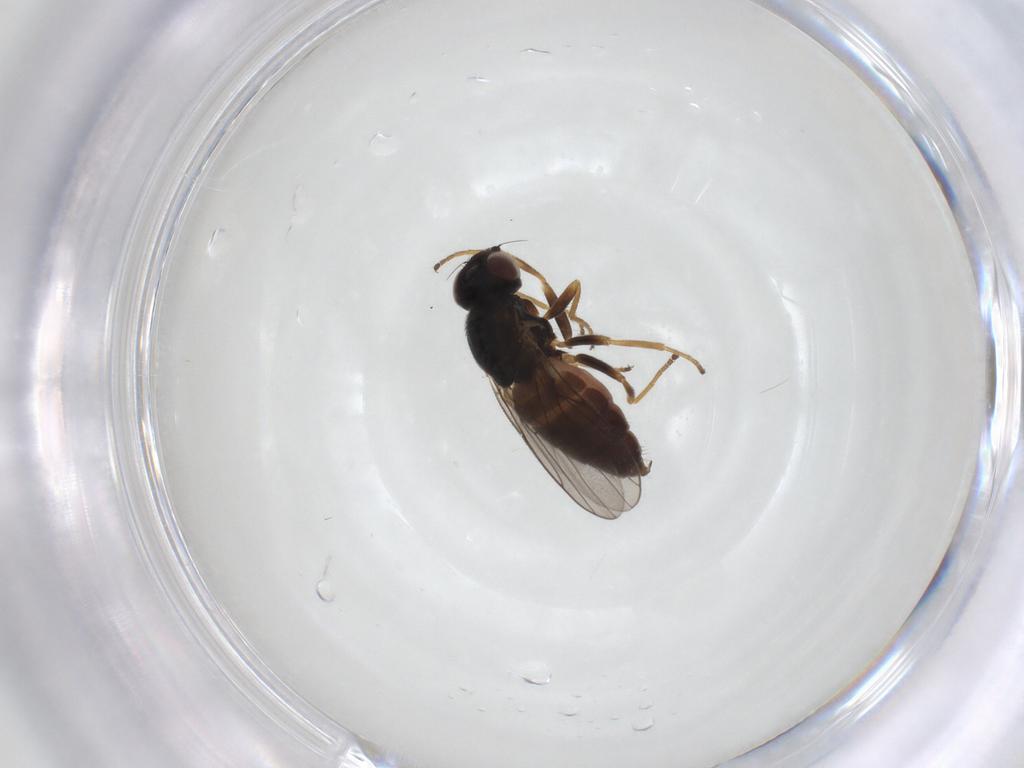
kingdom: Animalia
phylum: Arthropoda
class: Insecta
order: Diptera
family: Chloropidae
